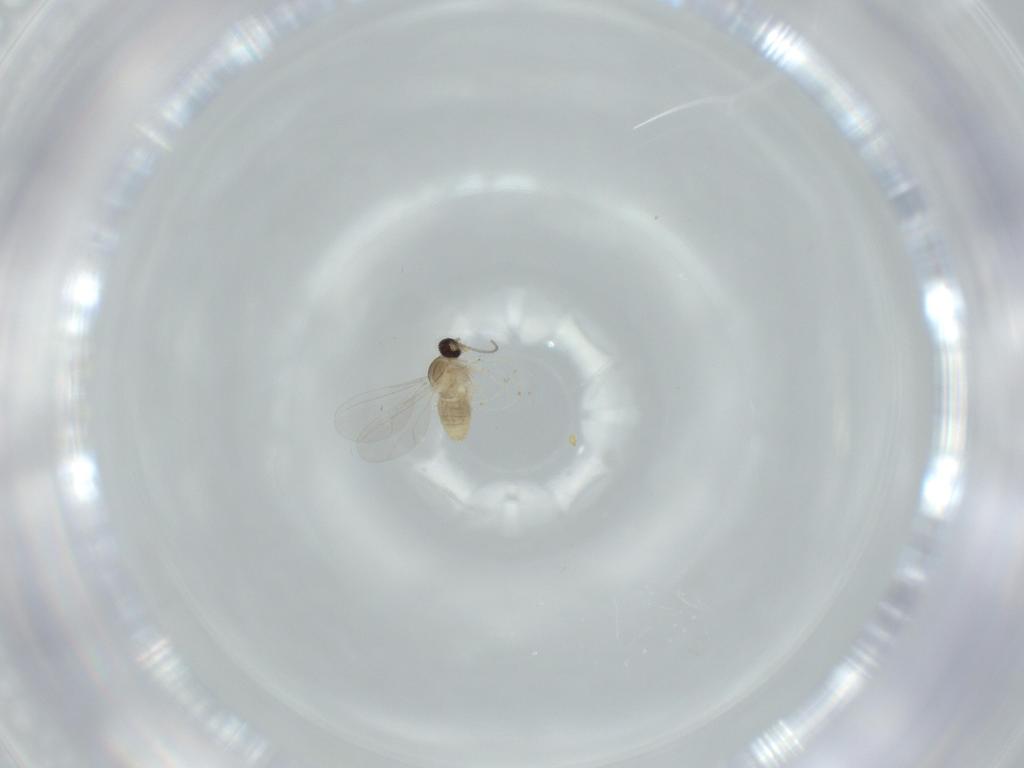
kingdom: Animalia
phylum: Arthropoda
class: Insecta
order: Diptera
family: Cecidomyiidae
